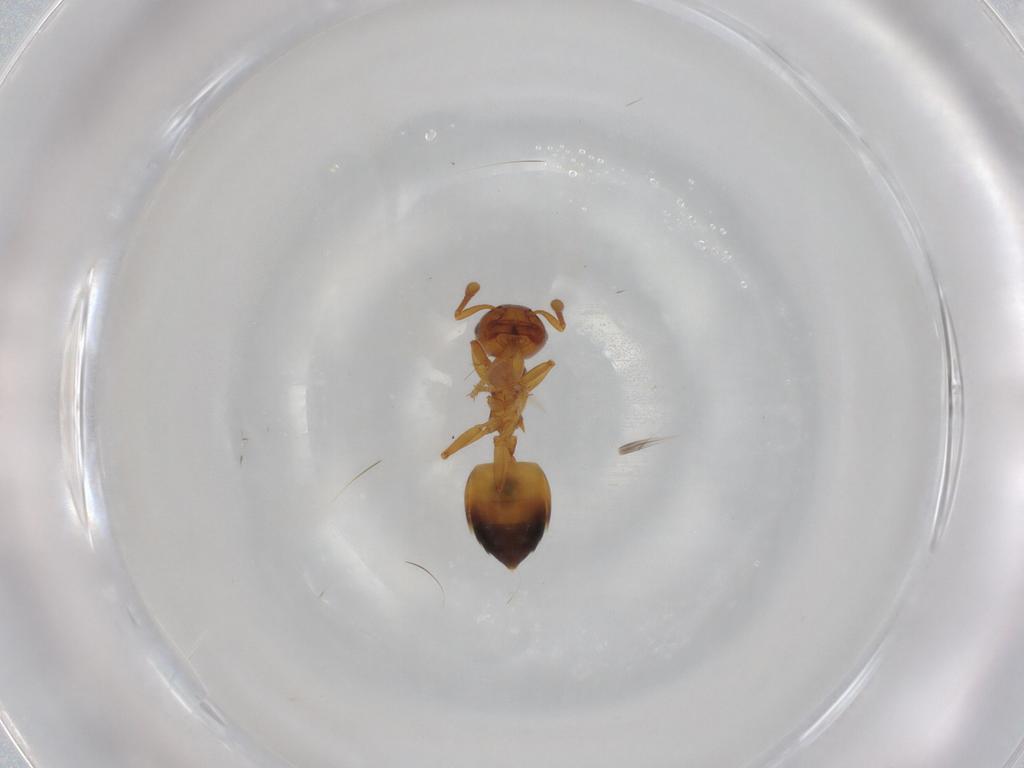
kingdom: Animalia
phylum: Arthropoda
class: Insecta
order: Hymenoptera
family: Formicidae
